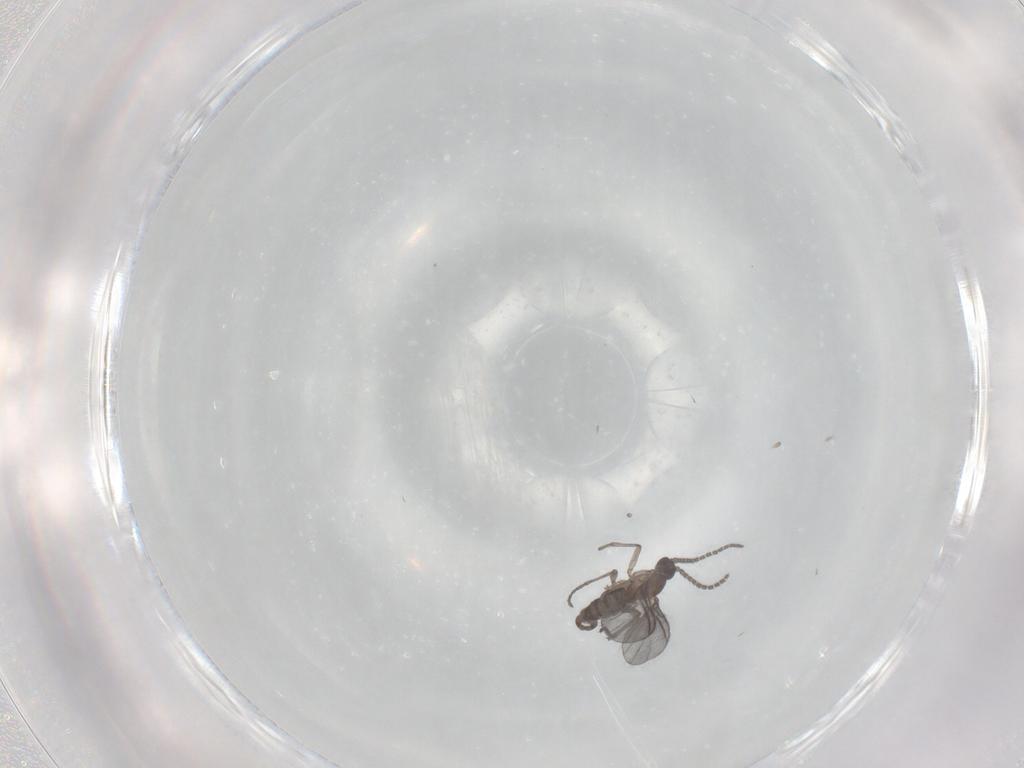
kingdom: Animalia
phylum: Arthropoda
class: Insecta
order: Diptera
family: Sciaridae
